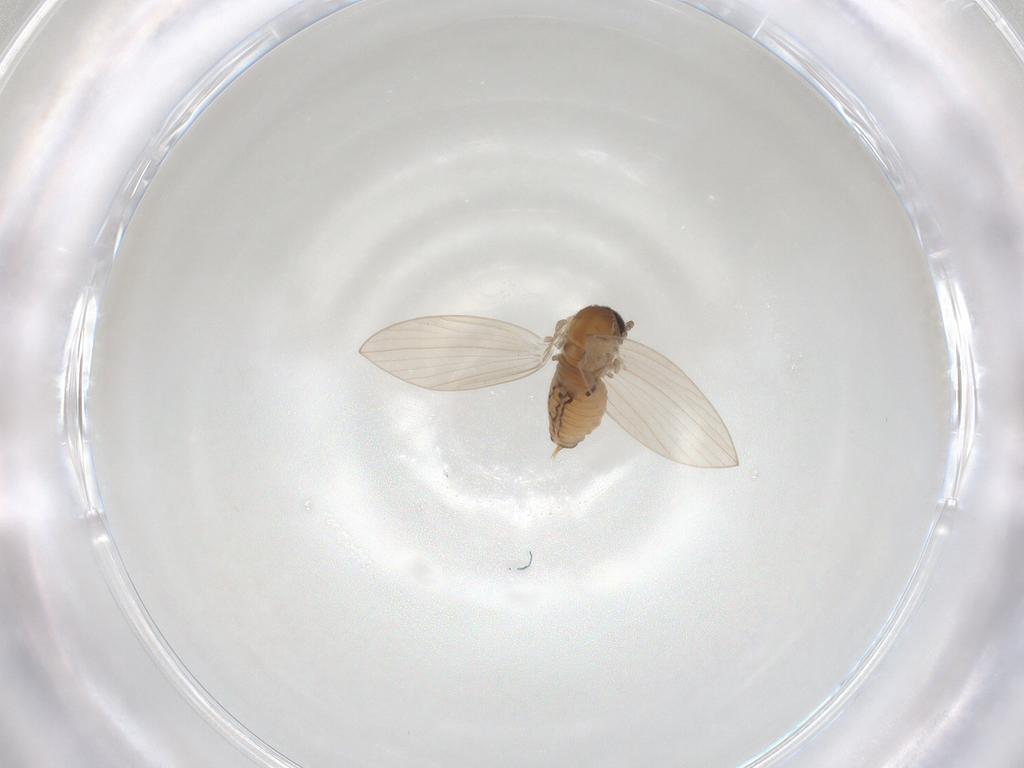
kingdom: Animalia
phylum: Arthropoda
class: Insecta
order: Diptera
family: Psychodidae
